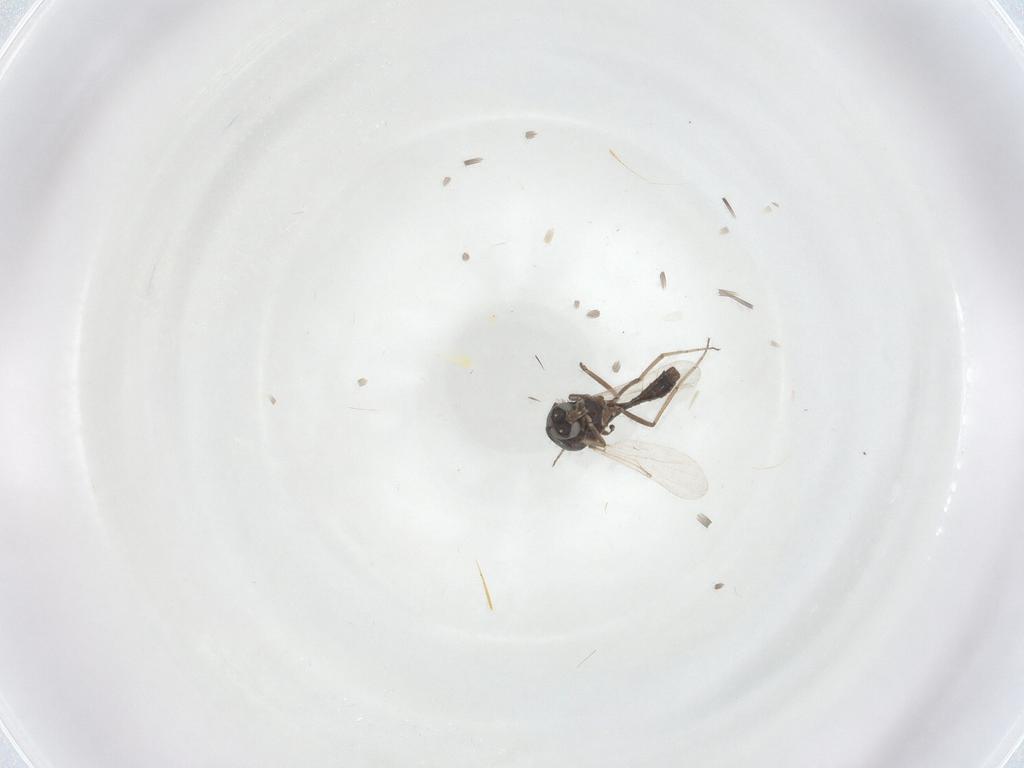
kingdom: Animalia
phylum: Arthropoda
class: Insecta
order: Diptera
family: Ceratopogonidae
